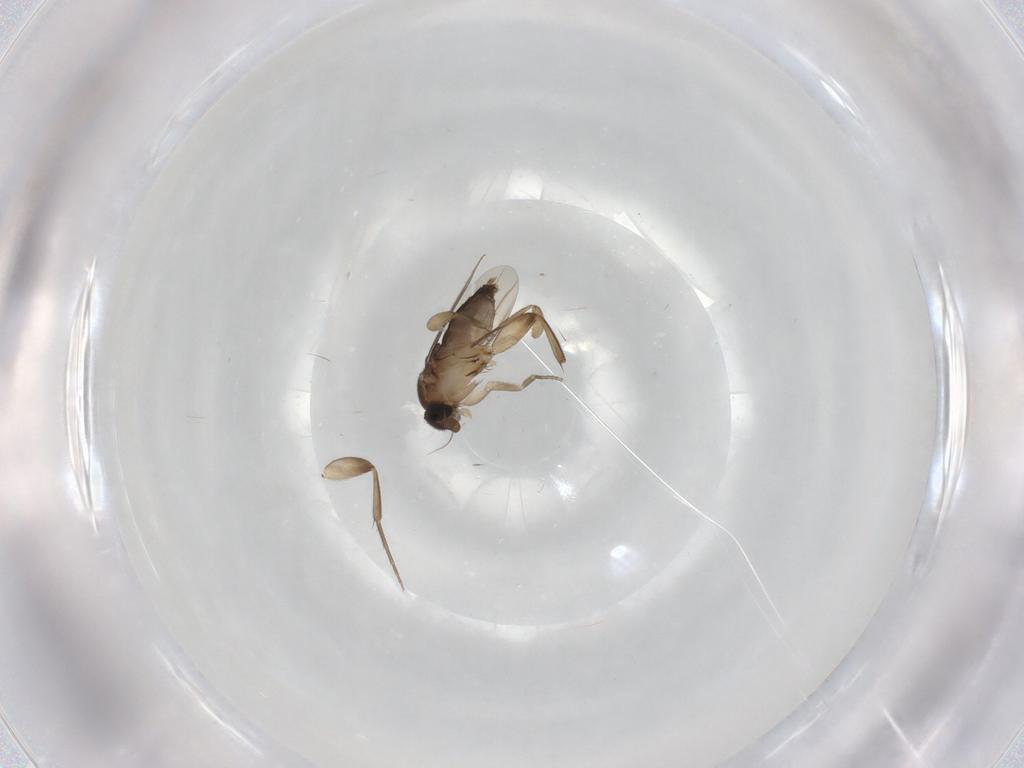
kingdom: Animalia
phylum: Arthropoda
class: Insecta
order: Diptera
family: Phoridae
